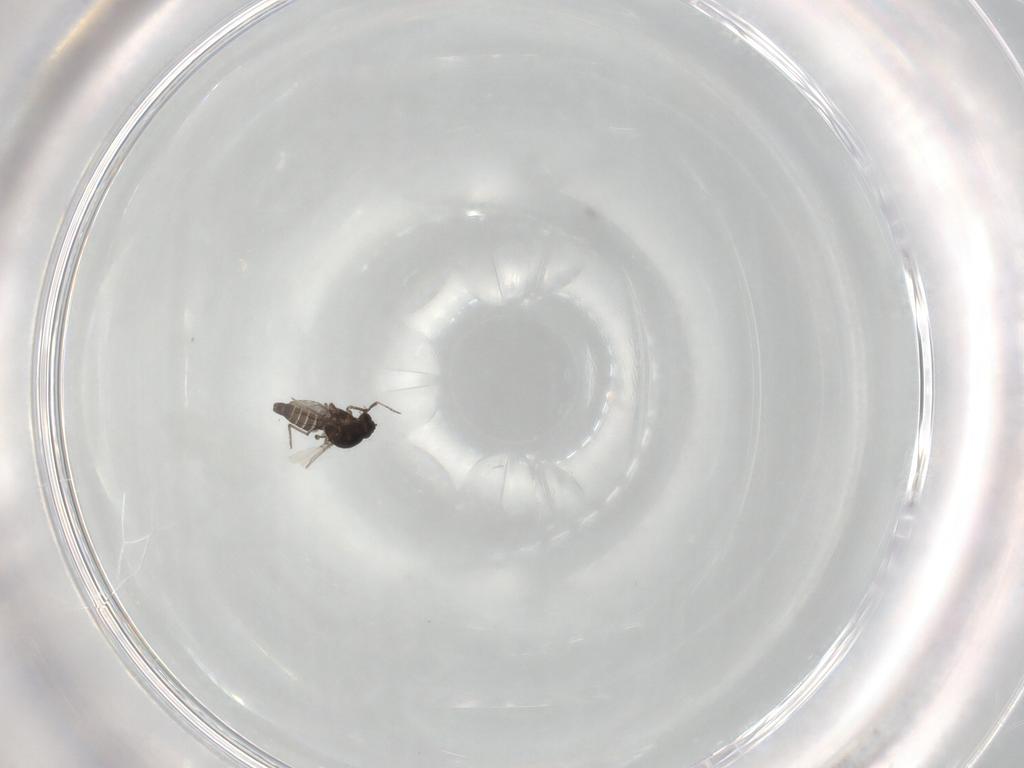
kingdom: Animalia
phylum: Arthropoda
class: Insecta
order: Diptera
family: Ceratopogonidae
